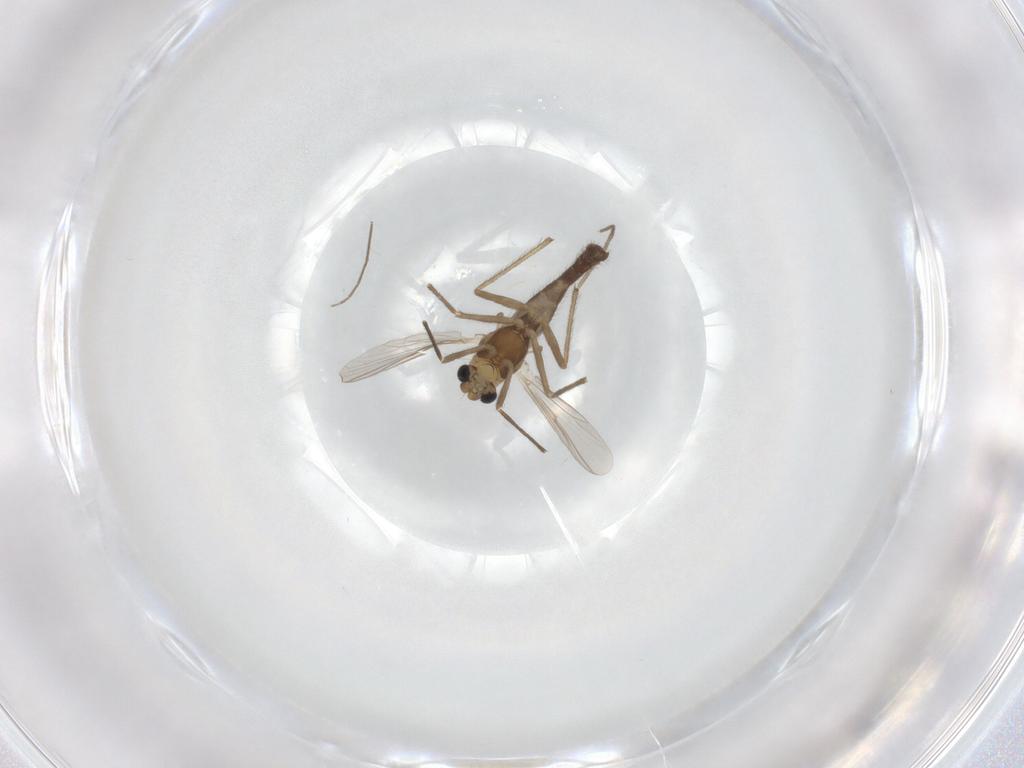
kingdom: Animalia
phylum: Arthropoda
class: Insecta
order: Diptera
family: Chironomidae
